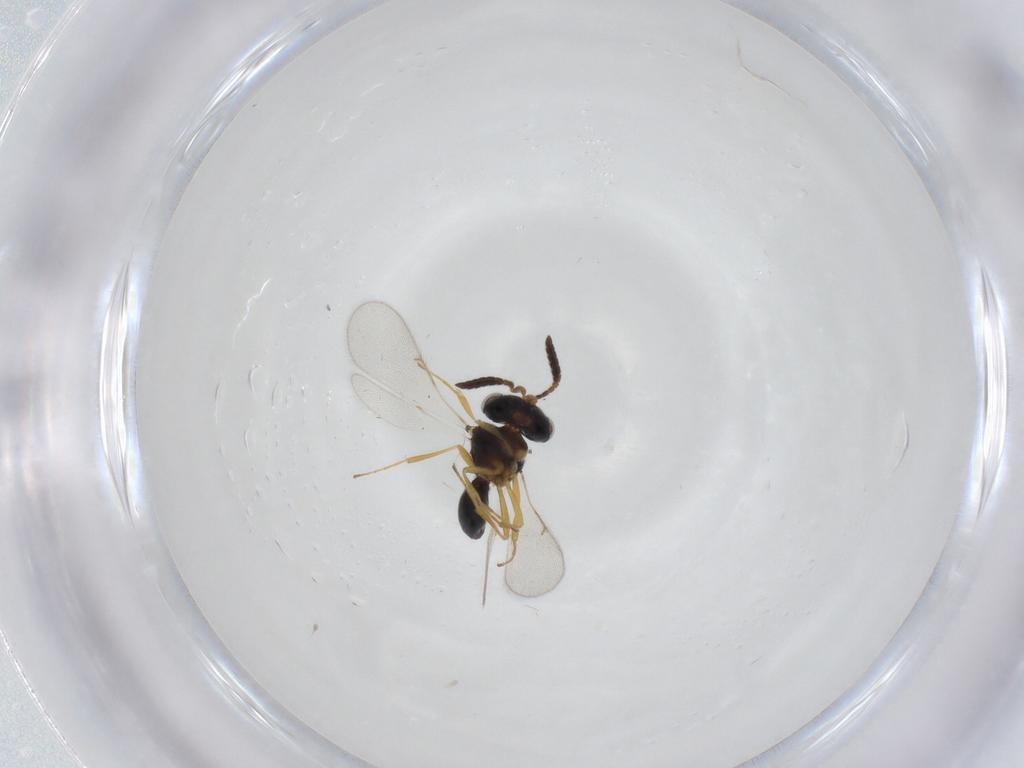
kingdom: Animalia
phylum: Arthropoda
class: Insecta
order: Hymenoptera
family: Scelionidae
